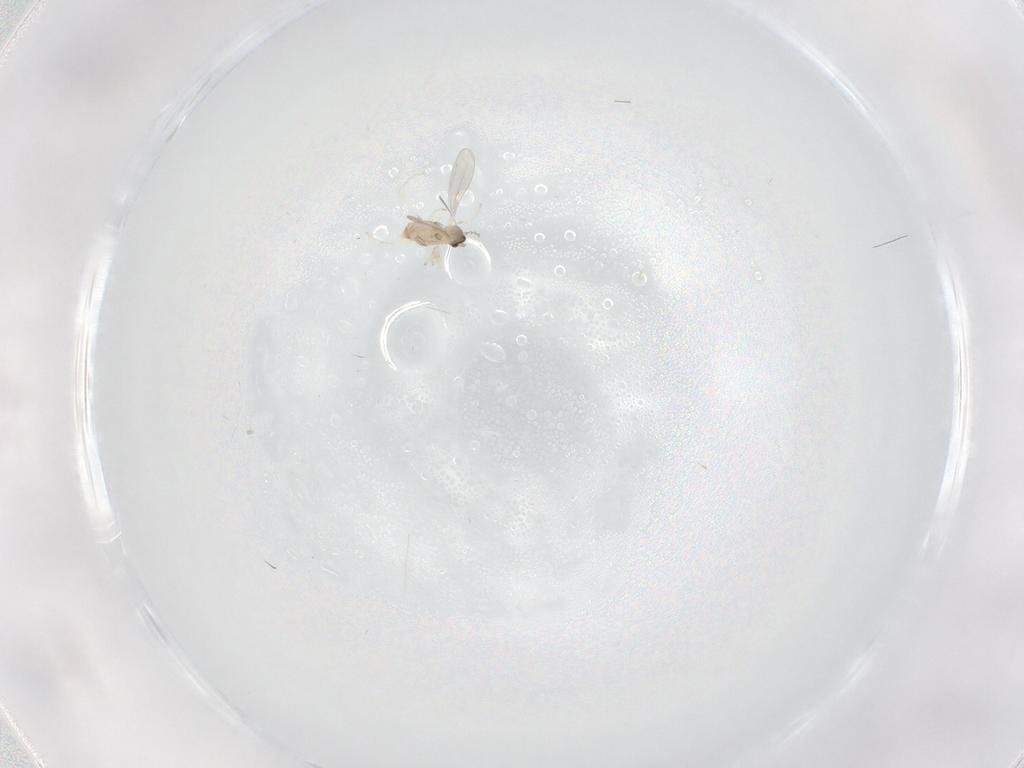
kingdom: Animalia
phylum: Arthropoda
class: Insecta
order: Diptera
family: Cecidomyiidae
